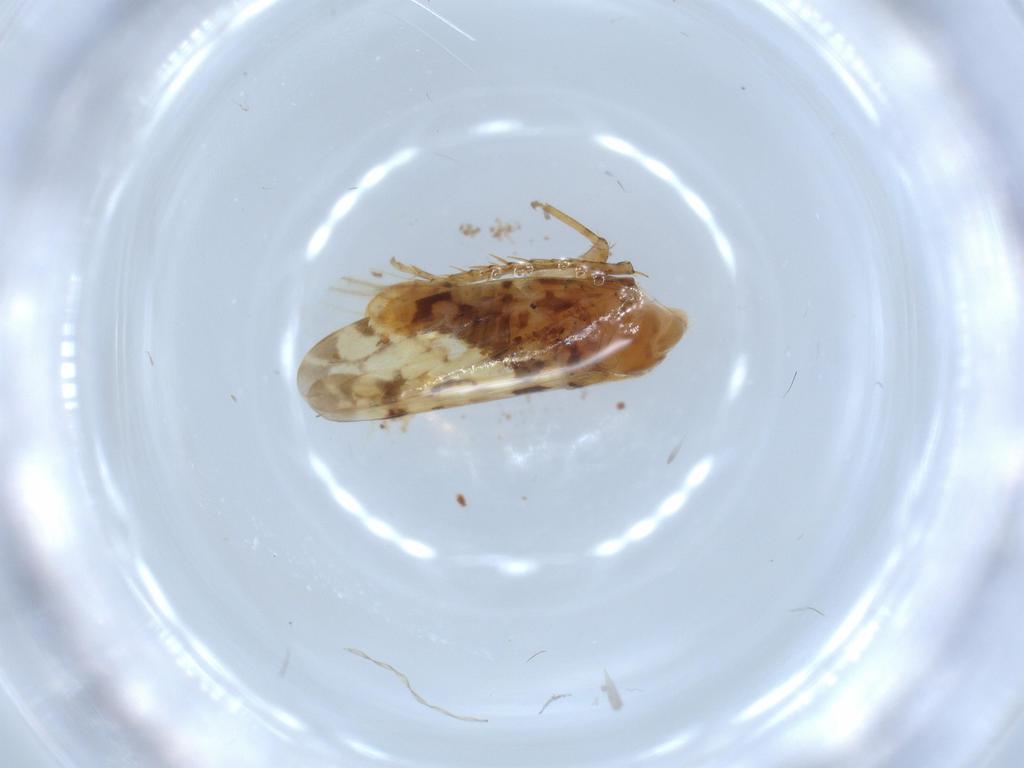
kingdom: Animalia
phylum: Arthropoda
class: Insecta
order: Hemiptera
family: Cicadellidae
